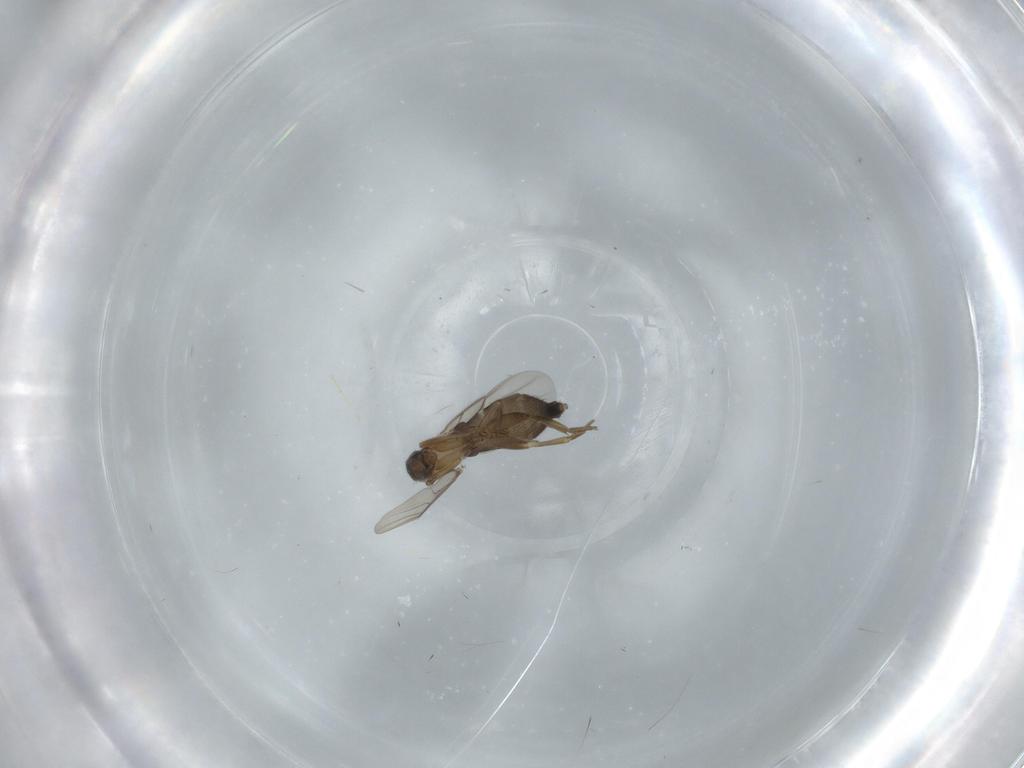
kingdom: Animalia
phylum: Arthropoda
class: Insecta
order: Diptera
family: Phoridae
